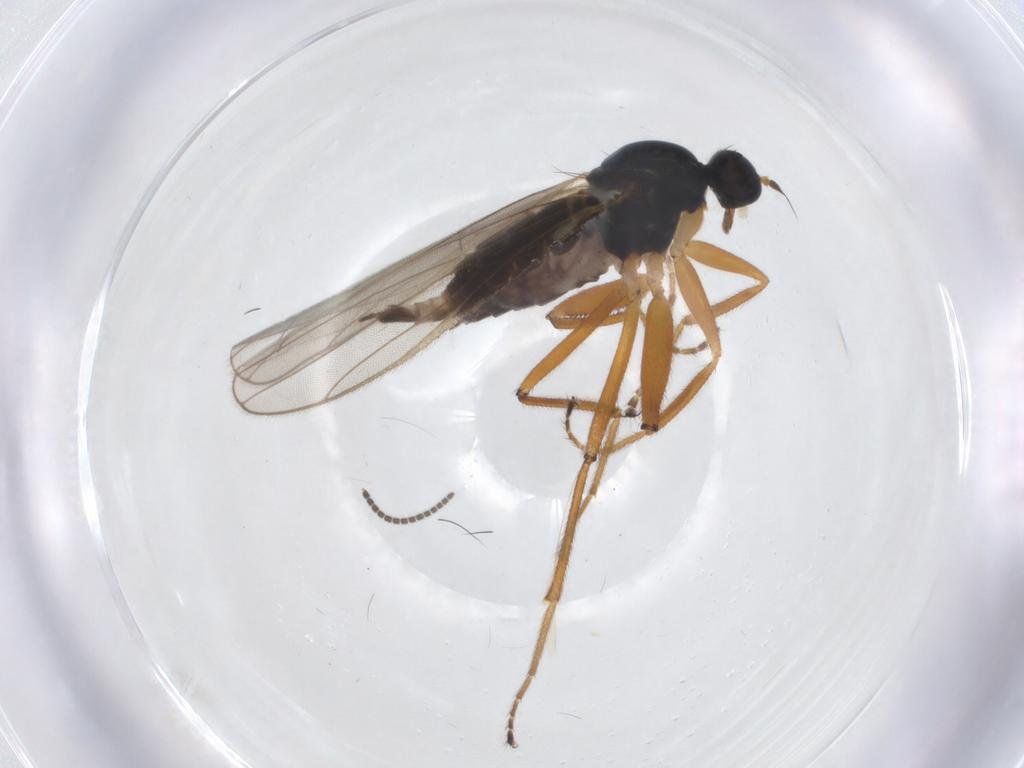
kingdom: Animalia
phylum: Arthropoda
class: Insecta
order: Diptera
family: Hybotidae
